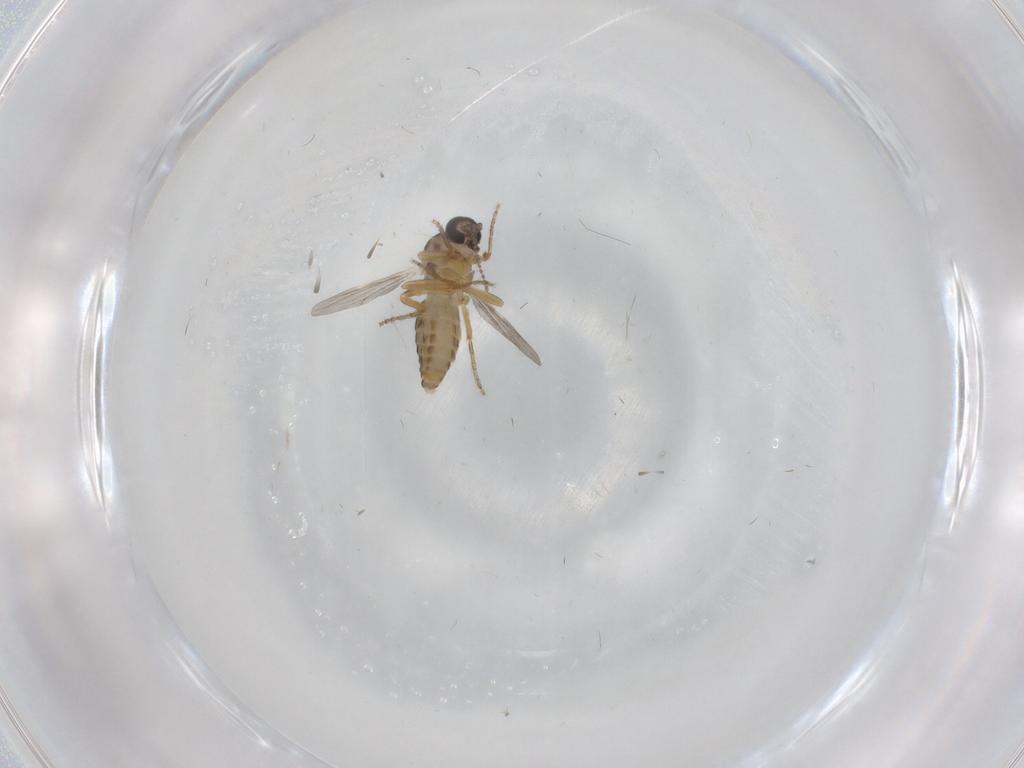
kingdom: Animalia
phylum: Arthropoda
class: Insecta
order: Diptera
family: Ceratopogonidae
